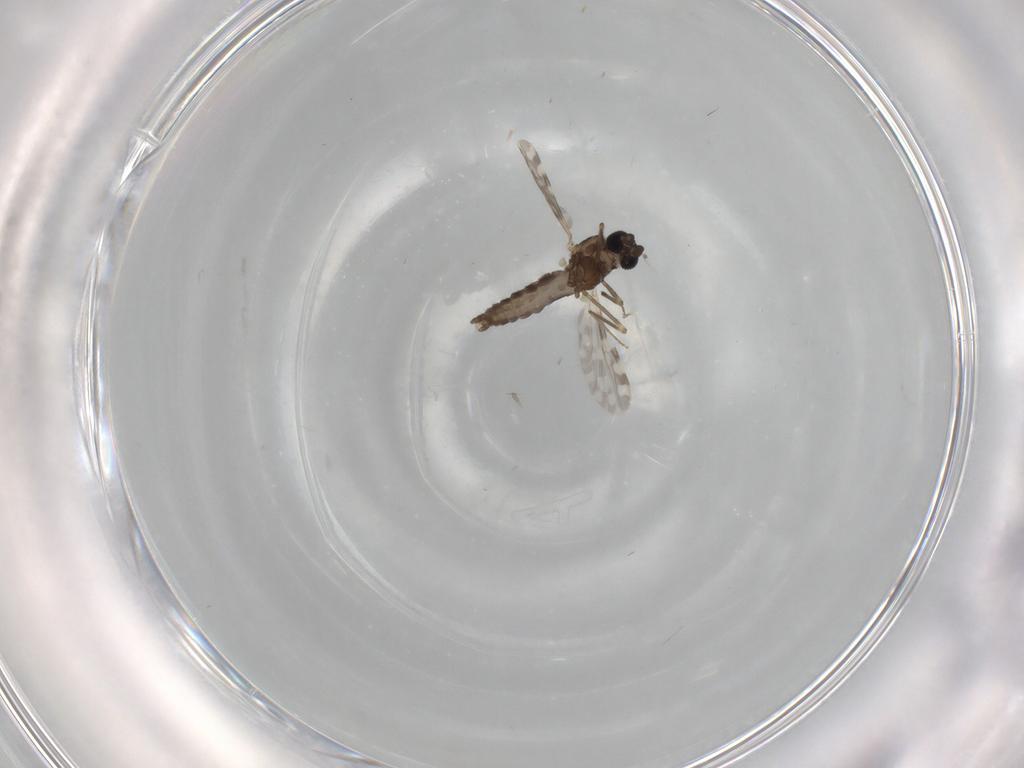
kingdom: Animalia
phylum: Arthropoda
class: Insecta
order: Diptera
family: Ceratopogonidae
